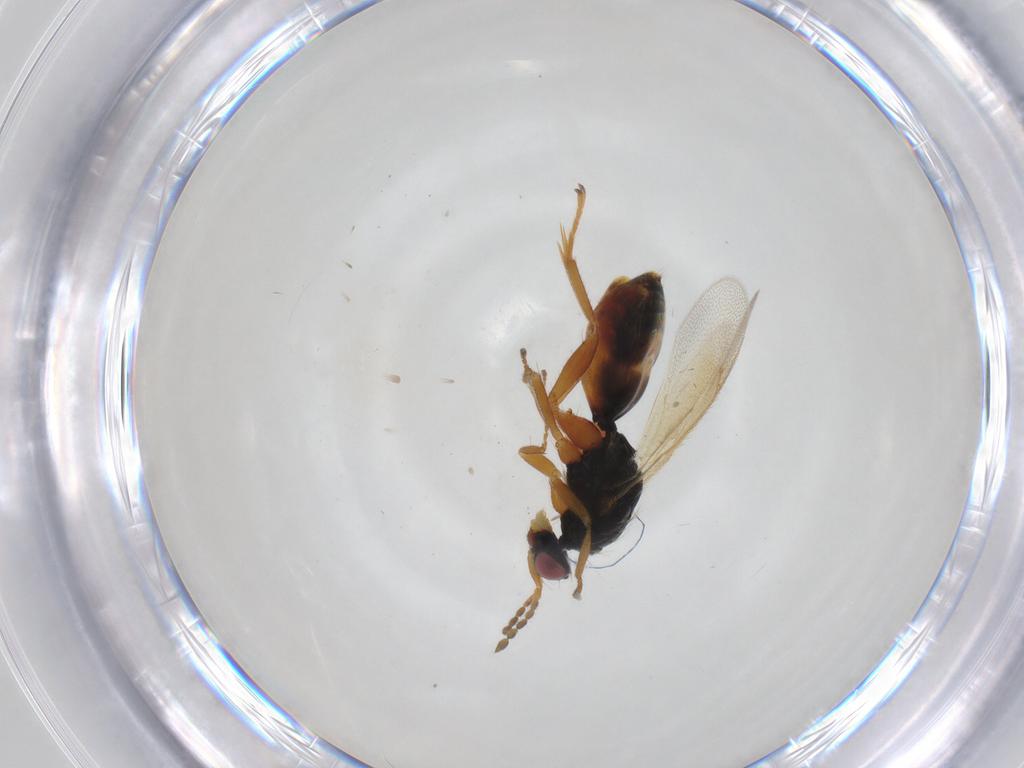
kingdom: Animalia
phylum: Arthropoda
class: Insecta
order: Hymenoptera
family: Eulophidae
